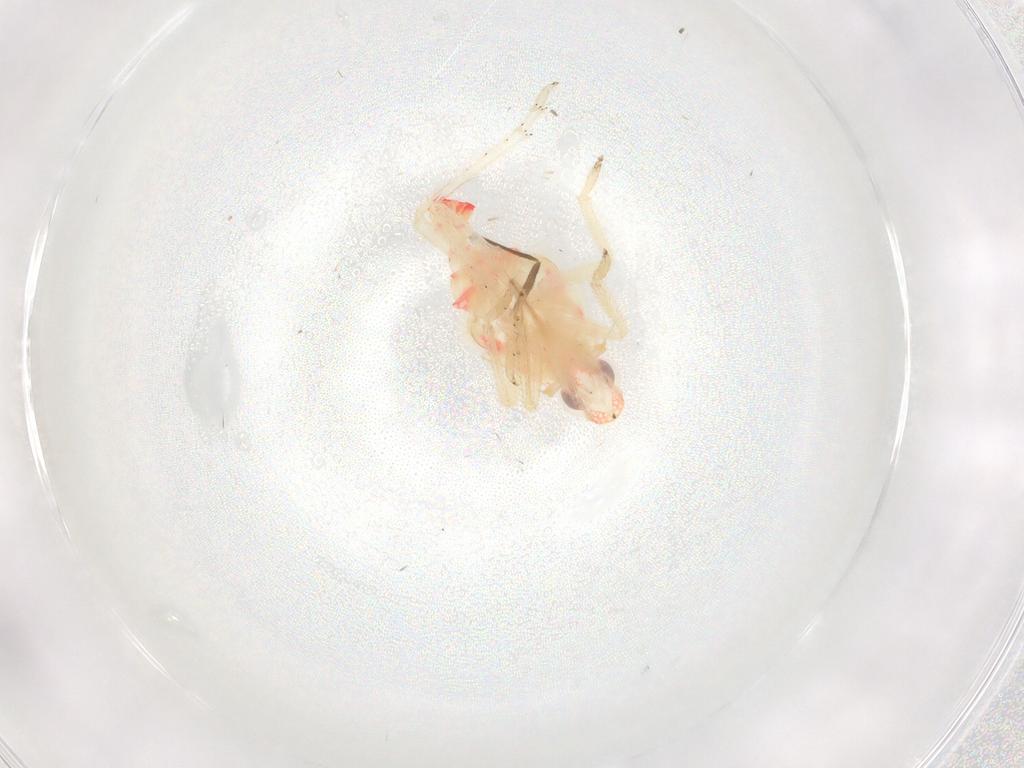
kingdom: Animalia
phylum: Arthropoda
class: Insecta
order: Hemiptera
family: Tropiduchidae
